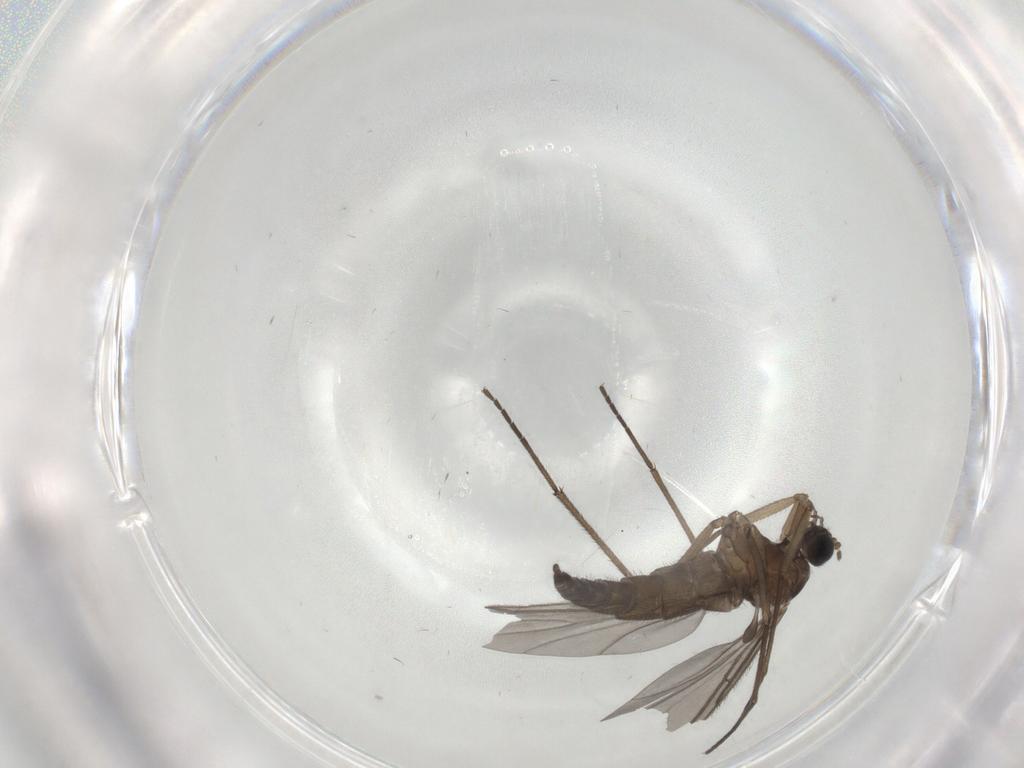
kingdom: Animalia
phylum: Arthropoda
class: Insecta
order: Diptera
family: Sciaridae
